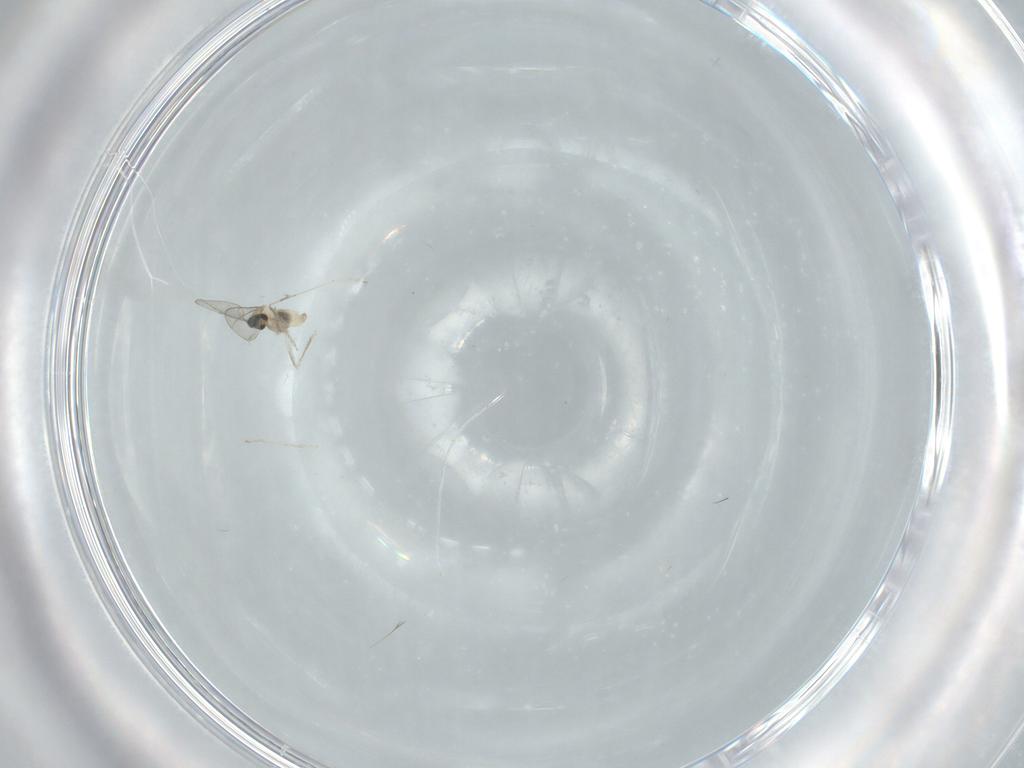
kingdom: Animalia
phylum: Arthropoda
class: Insecta
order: Diptera
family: Cecidomyiidae
